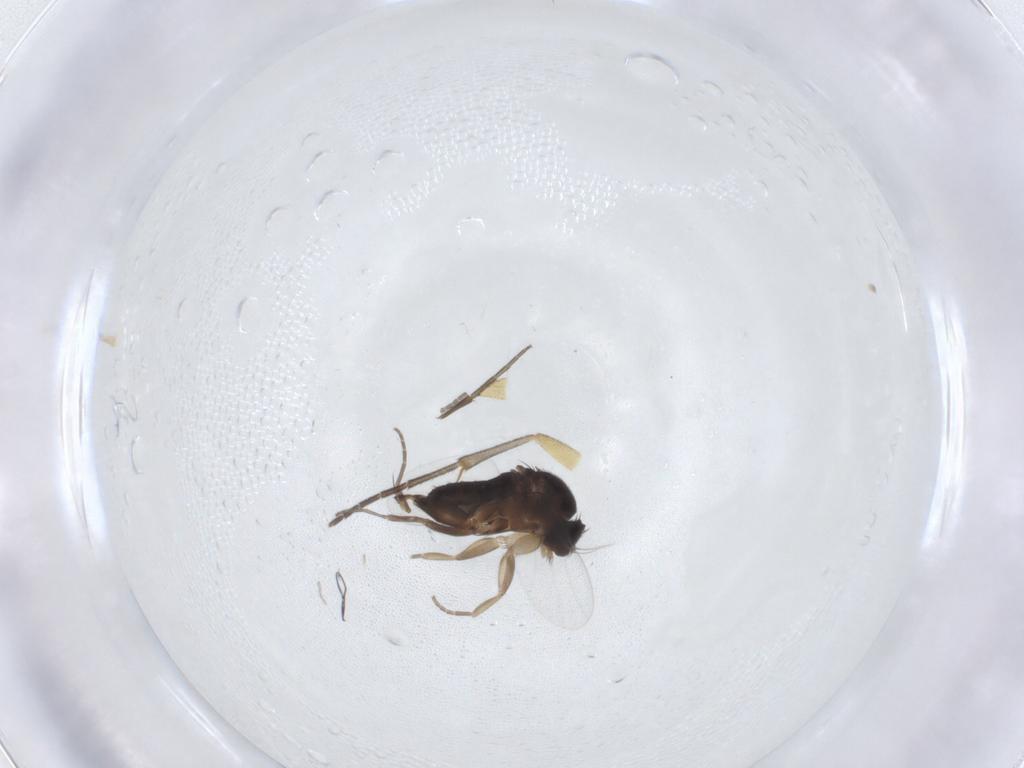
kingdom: Animalia
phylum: Arthropoda
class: Insecta
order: Diptera
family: Phoridae
